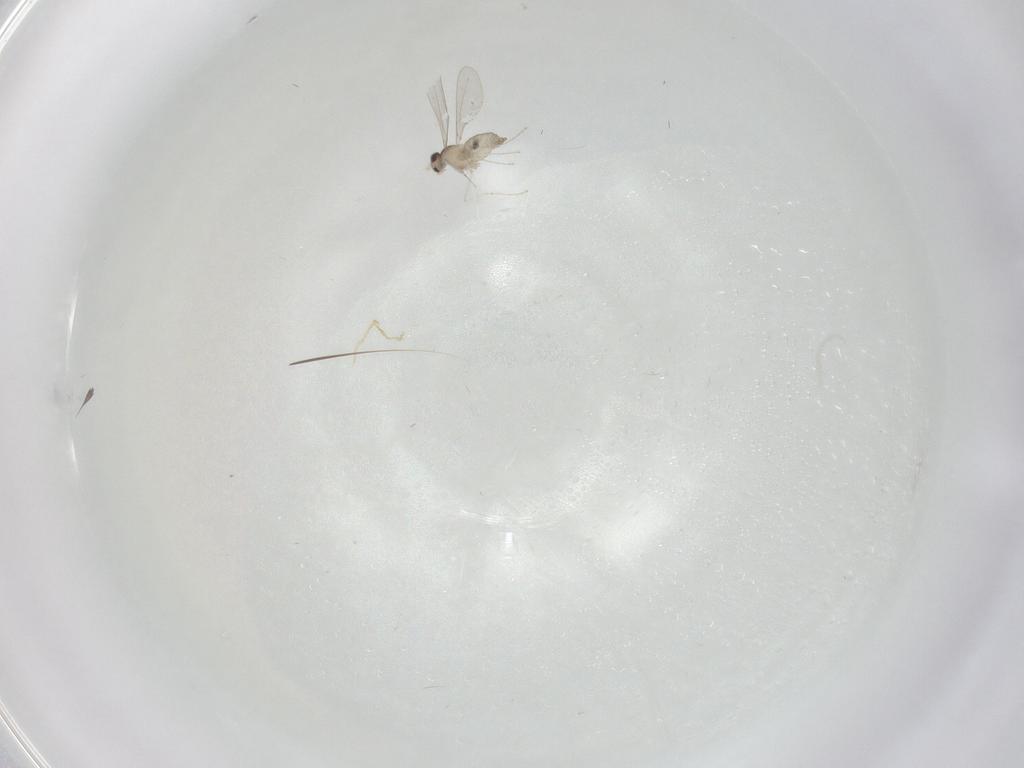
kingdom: Animalia
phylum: Arthropoda
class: Insecta
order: Diptera
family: Cecidomyiidae
